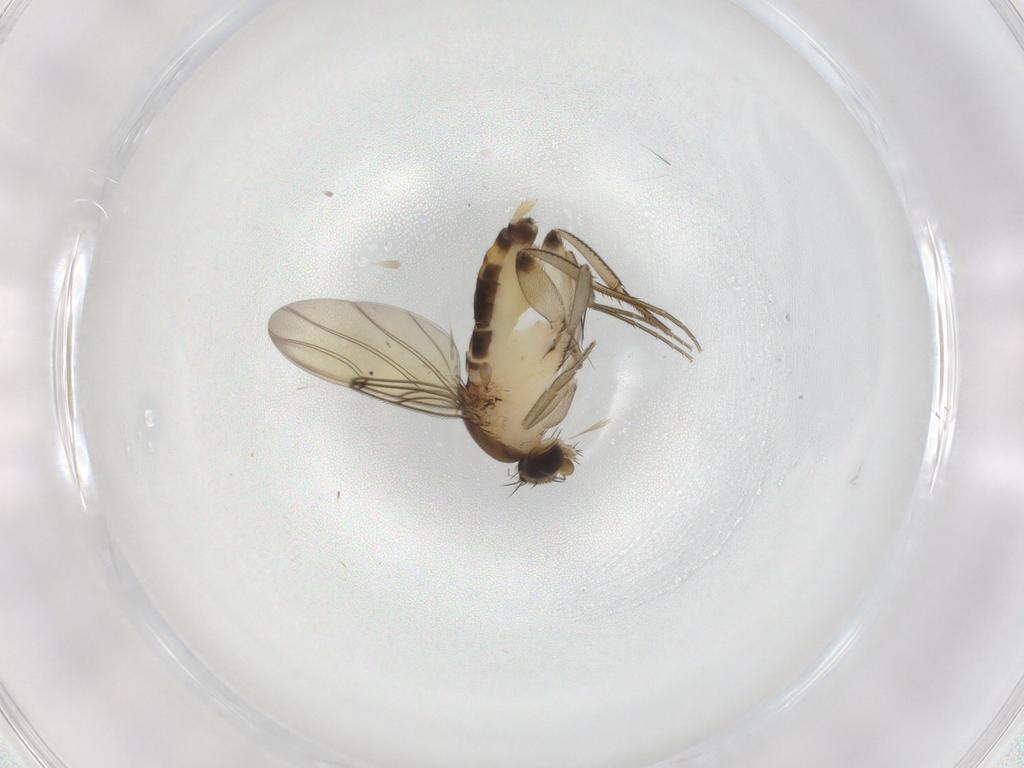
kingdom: Animalia
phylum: Arthropoda
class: Insecta
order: Diptera
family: Phoridae
